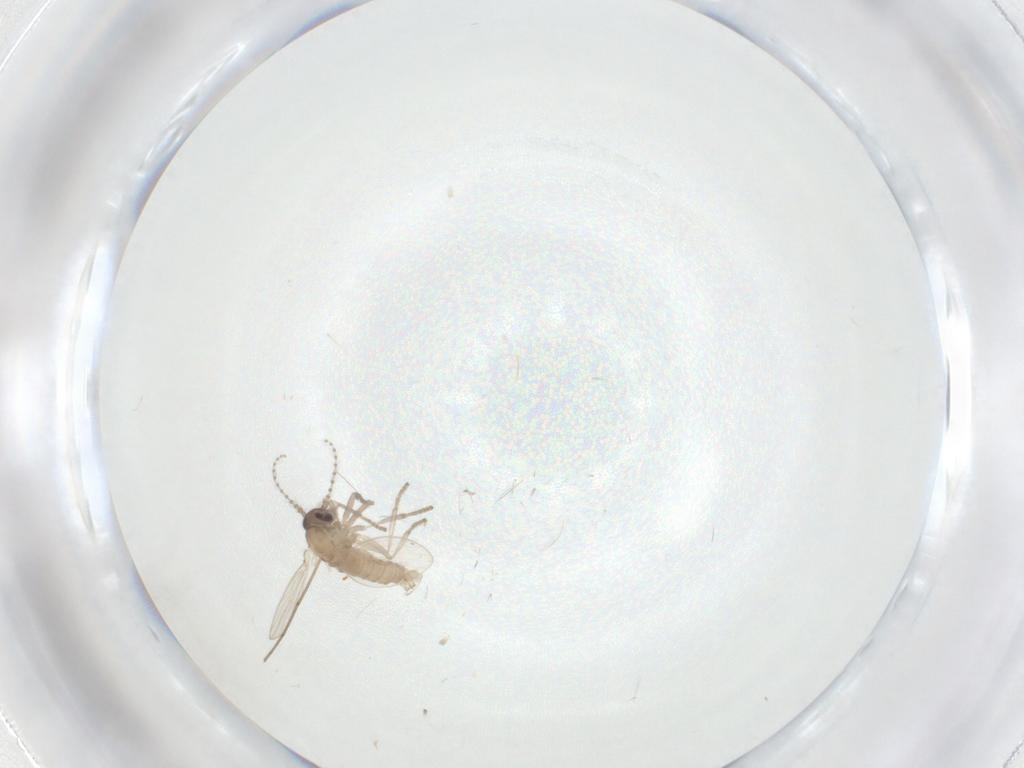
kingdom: Animalia
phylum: Arthropoda
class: Insecta
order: Diptera
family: Psychodidae
